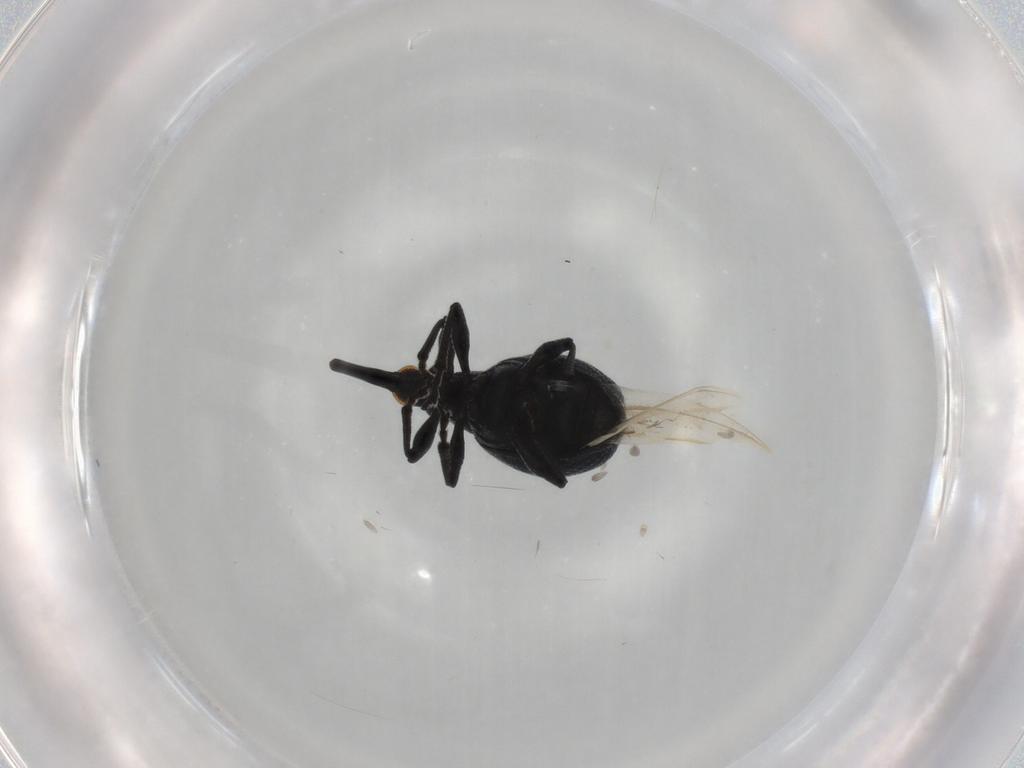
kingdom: Animalia
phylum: Arthropoda
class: Insecta
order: Coleoptera
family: Brentidae
